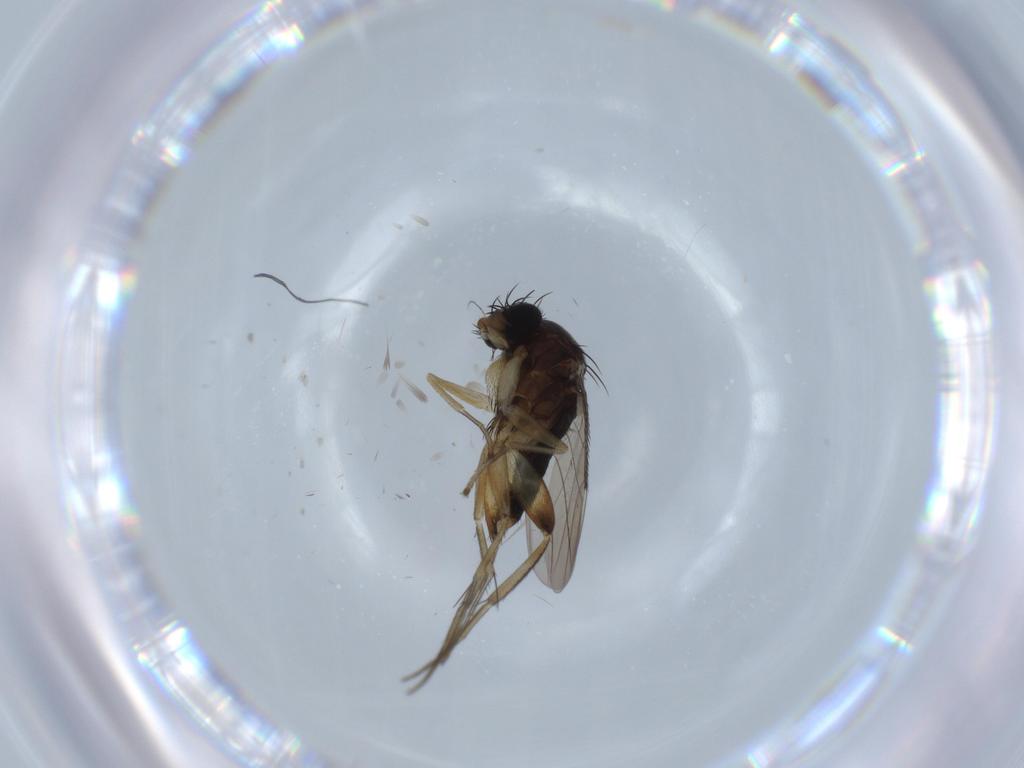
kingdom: Animalia
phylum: Arthropoda
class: Insecta
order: Diptera
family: Phoridae
